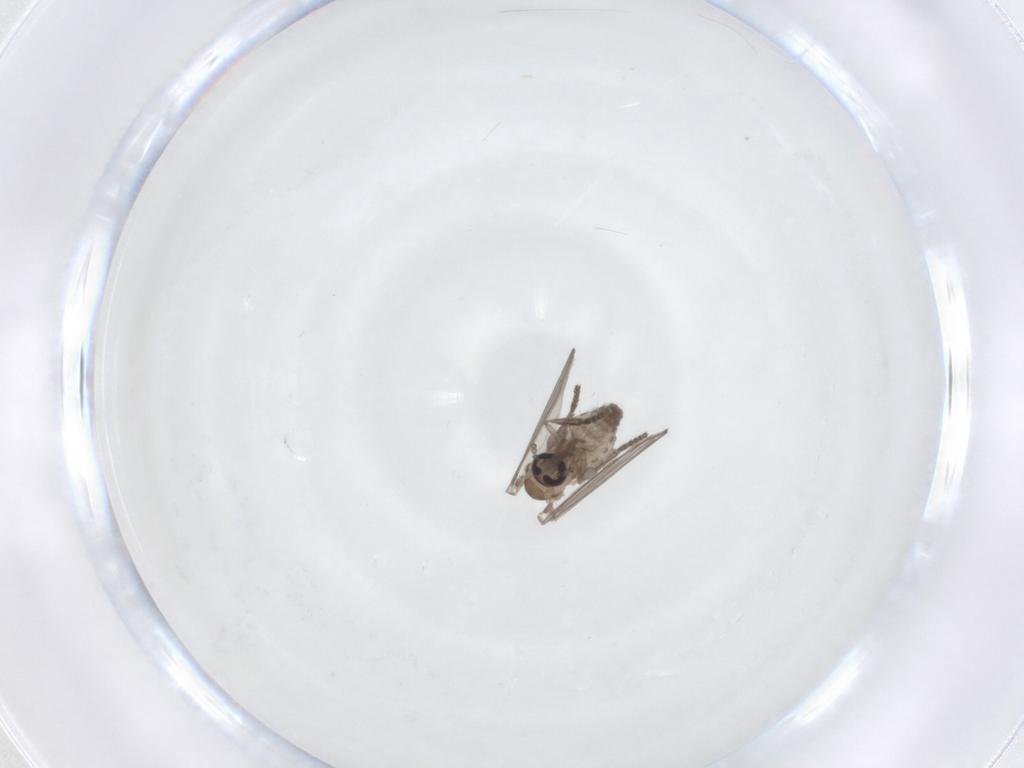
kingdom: Animalia
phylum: Arthropoda
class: Insecta
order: Diptera
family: Psychodidae
